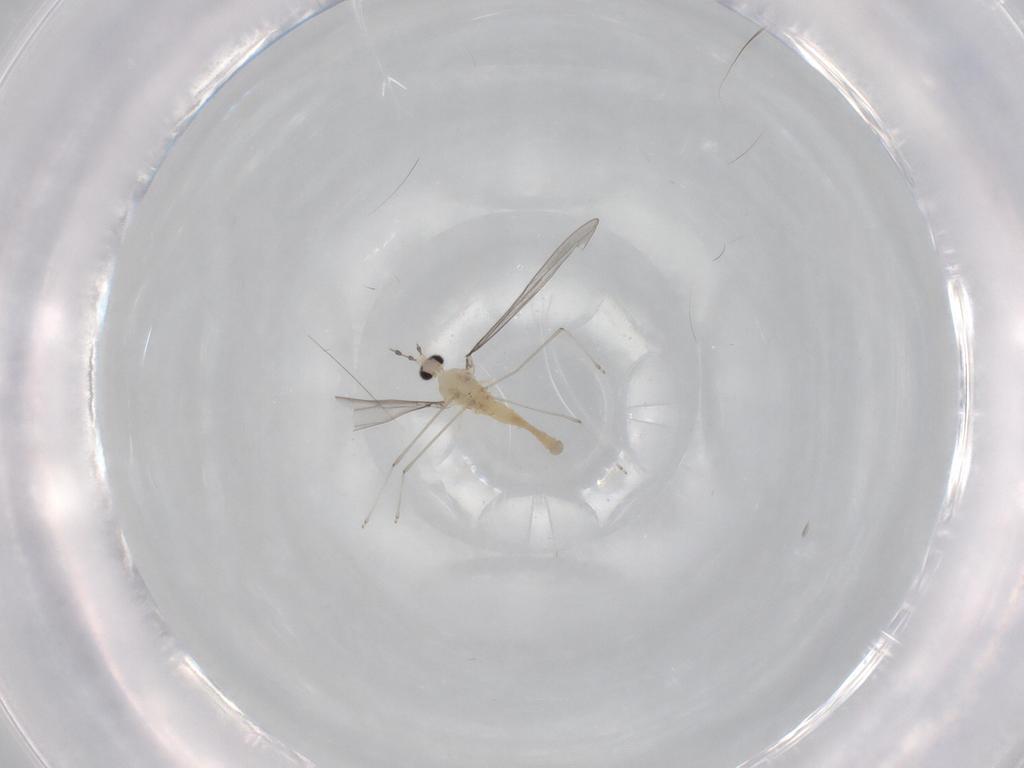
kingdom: Animalia
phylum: Arthropoda
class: Insecta
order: Diptera
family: Cecidomyiidae
